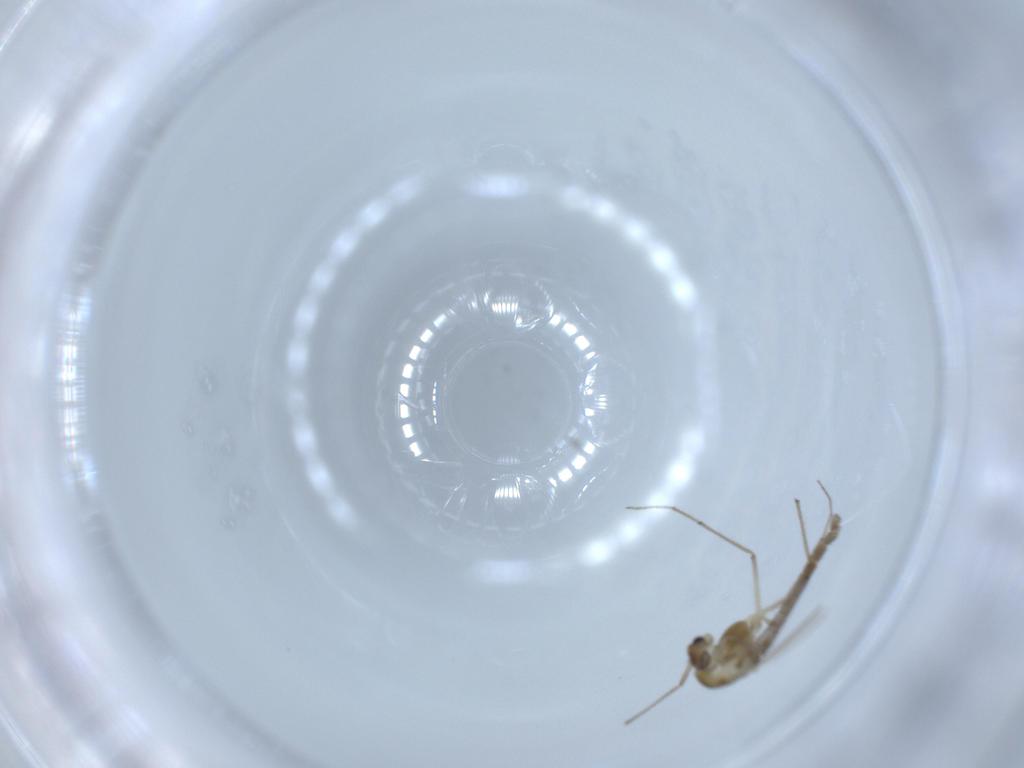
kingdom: Animalia
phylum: Arthropoda
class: Insecta
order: Diptera
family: Chironomidae
